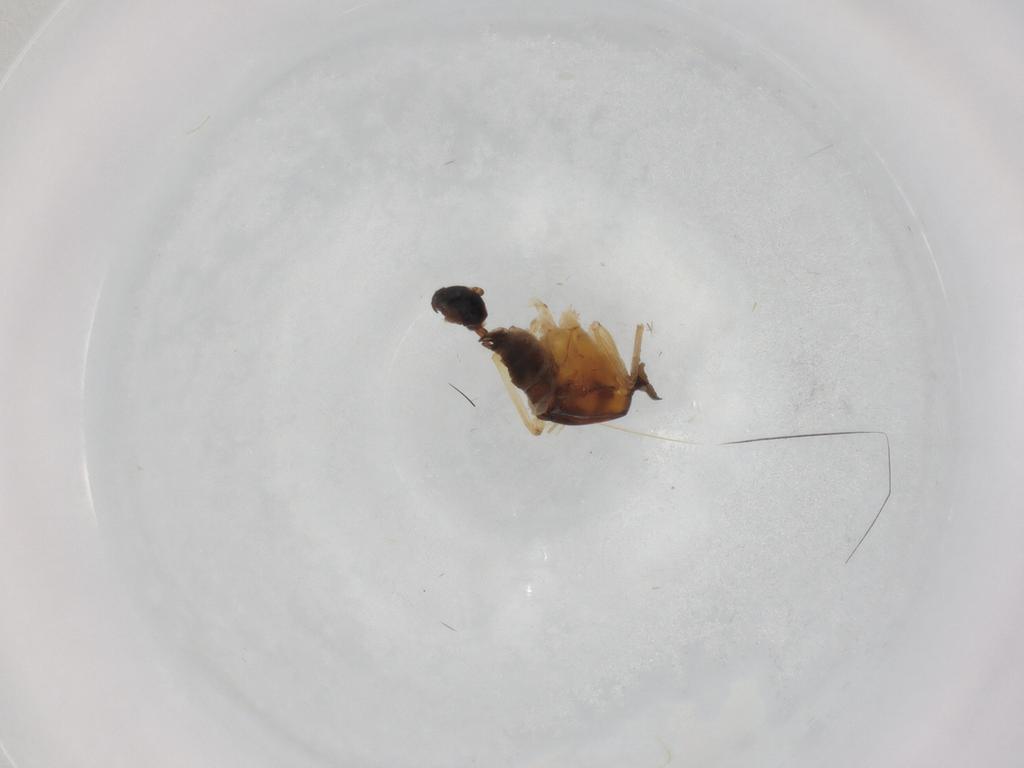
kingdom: Animalia
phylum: Arthropoda
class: Insecta
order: Diptera
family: Hybotidae
